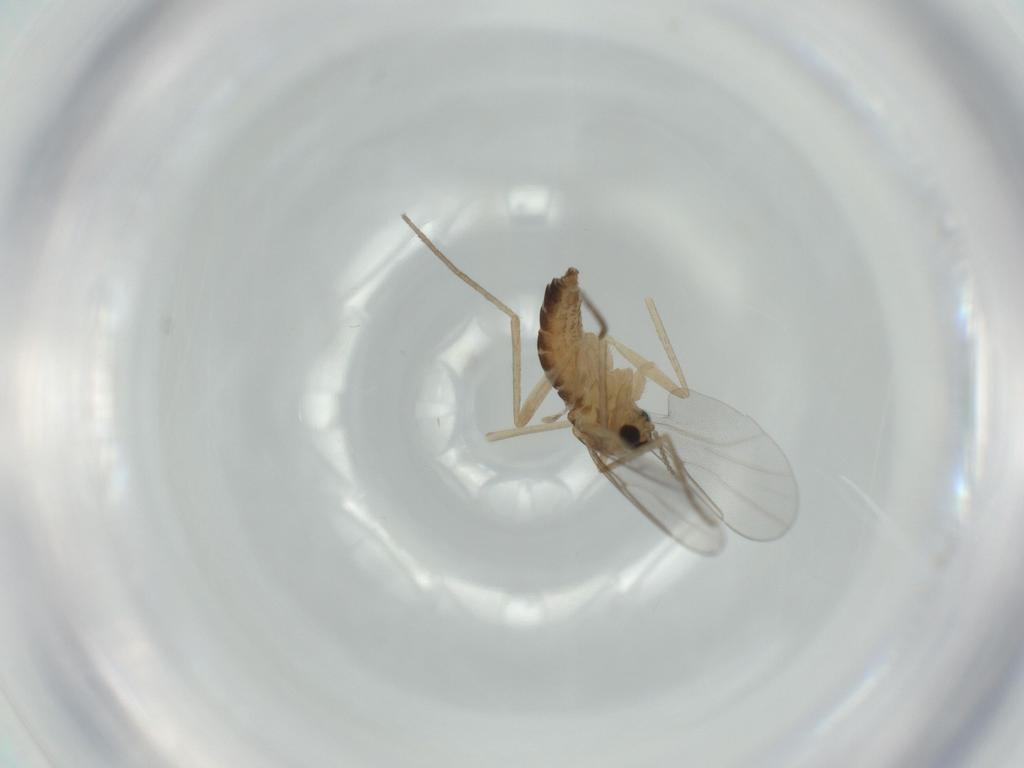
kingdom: Animalia
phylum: Arthropoda
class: Insecta
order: Diptera
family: Cecidomyiidae
